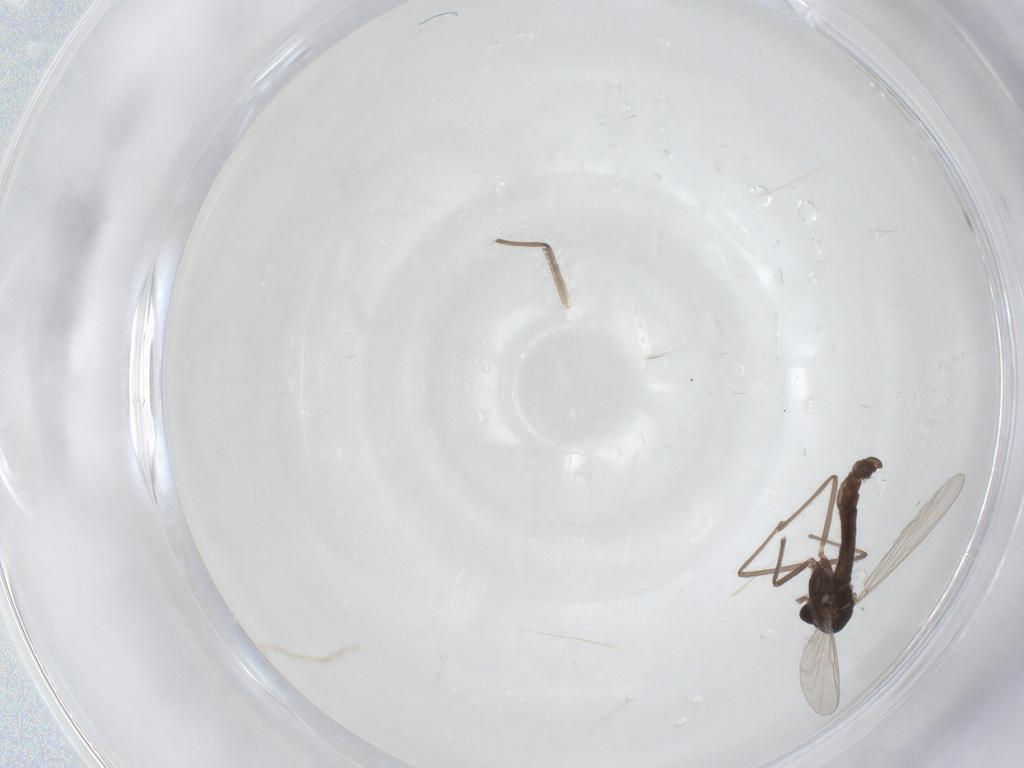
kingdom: Animalia
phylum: Arthropoda
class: Insecta
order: Diptera
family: Chironomidae
